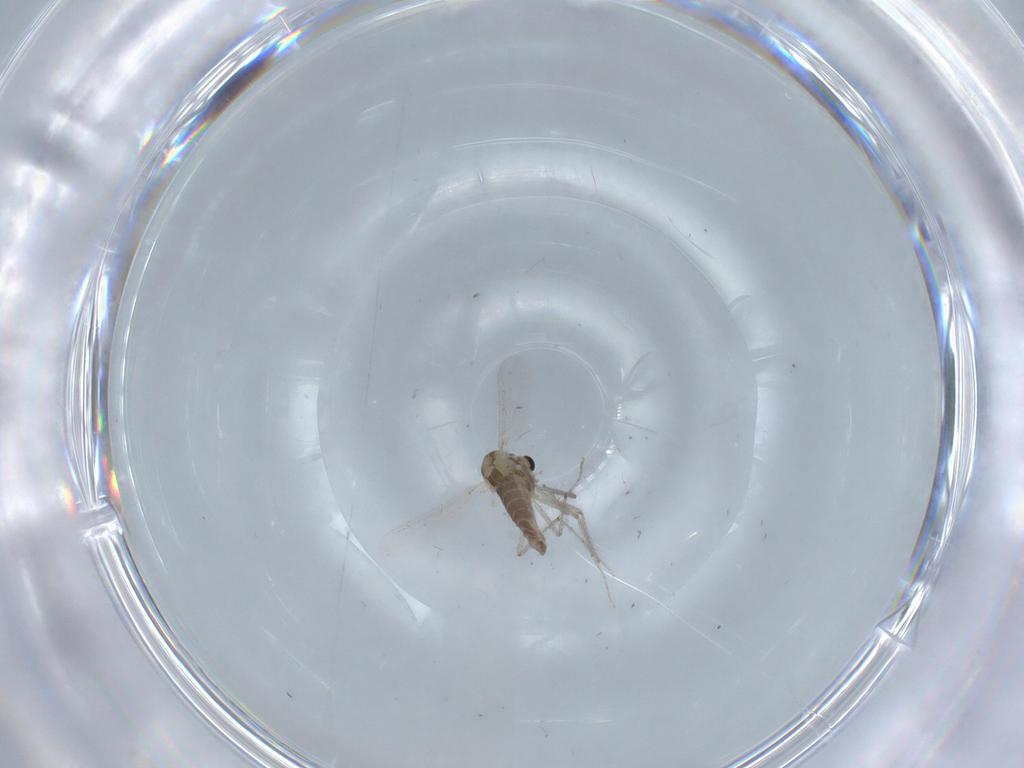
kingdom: Animalia
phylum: Arthropoda
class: Insecta
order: Diptera
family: Chironomidae
